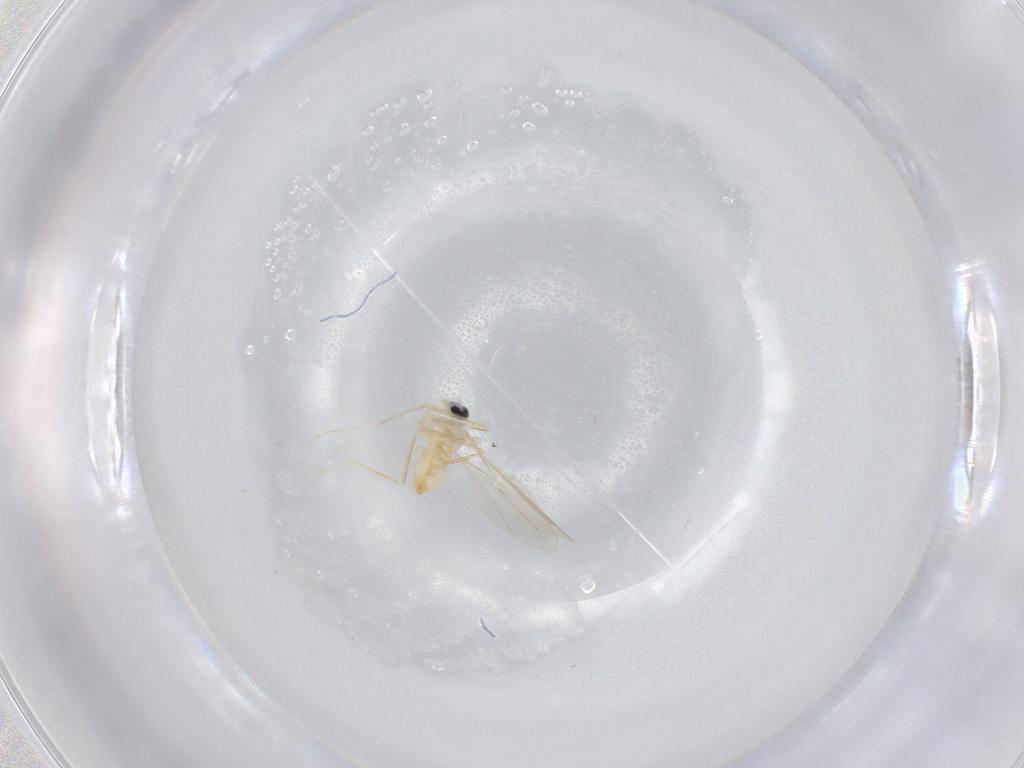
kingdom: Animalia
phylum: Arthropoda
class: Insecta
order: Diptera
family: Cecidomyiidae
